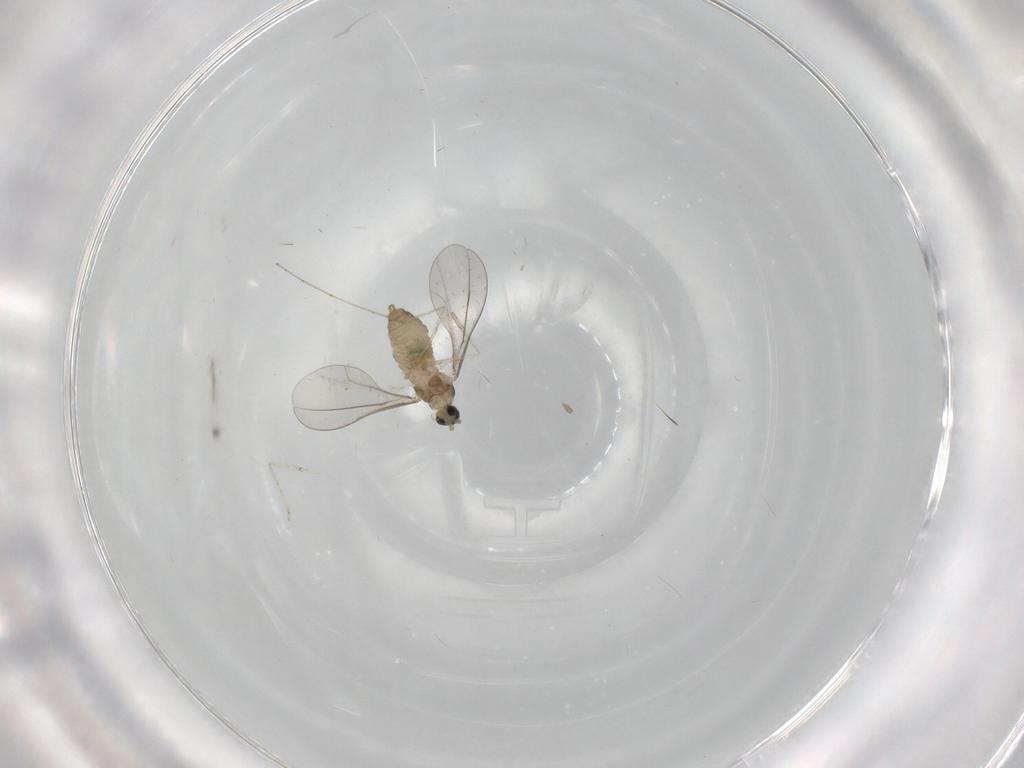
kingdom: Animalia
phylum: Arthropoda
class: Insecta
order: Diptera
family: Cecidomyiidae
